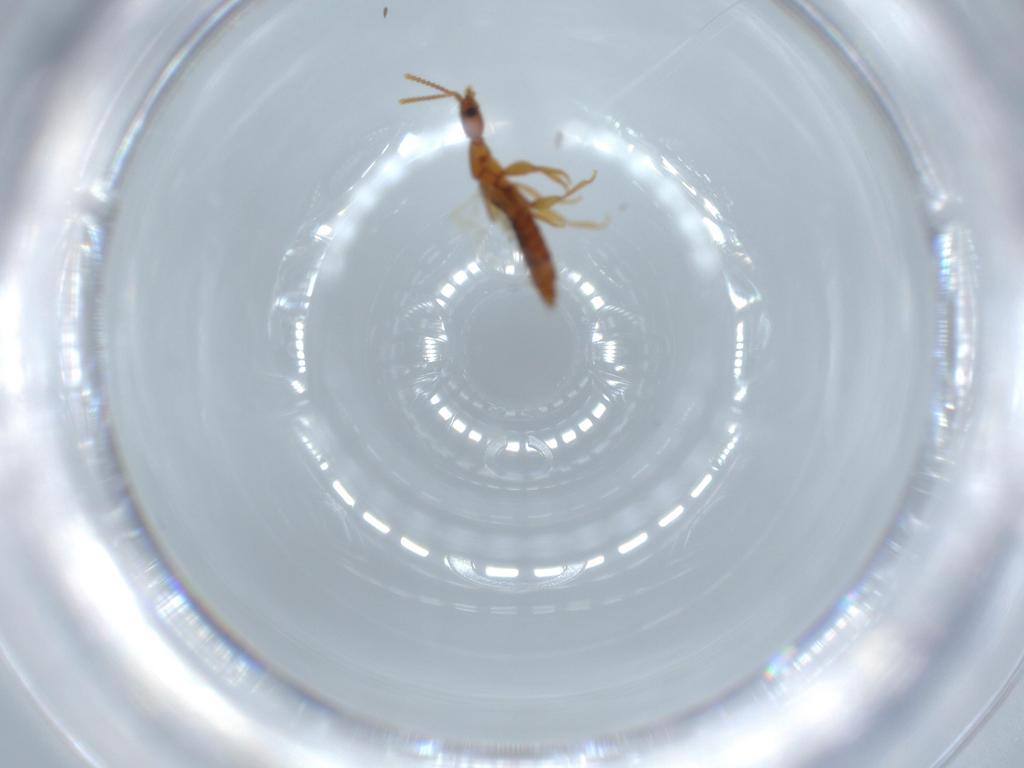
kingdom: Animalia
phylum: Arthropoda
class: Insecta
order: Coleoptera
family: Staphylinidae
